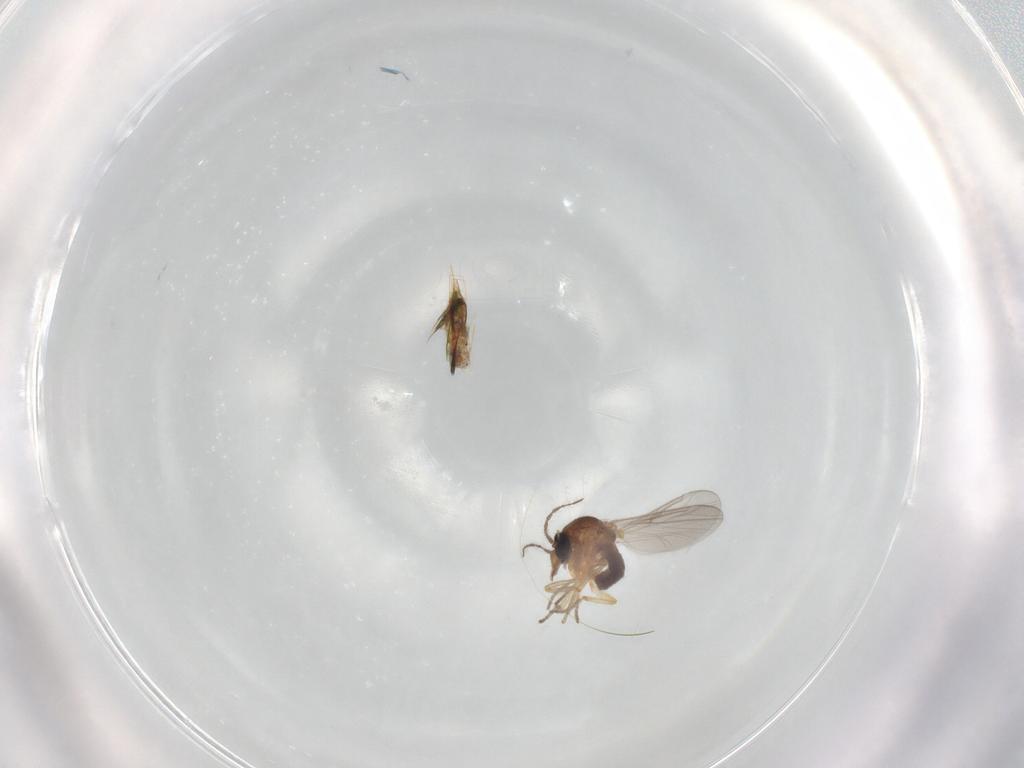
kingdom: Animalia
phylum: Arthropoda
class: Insecta
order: Diptera
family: Ceratopogonidae
